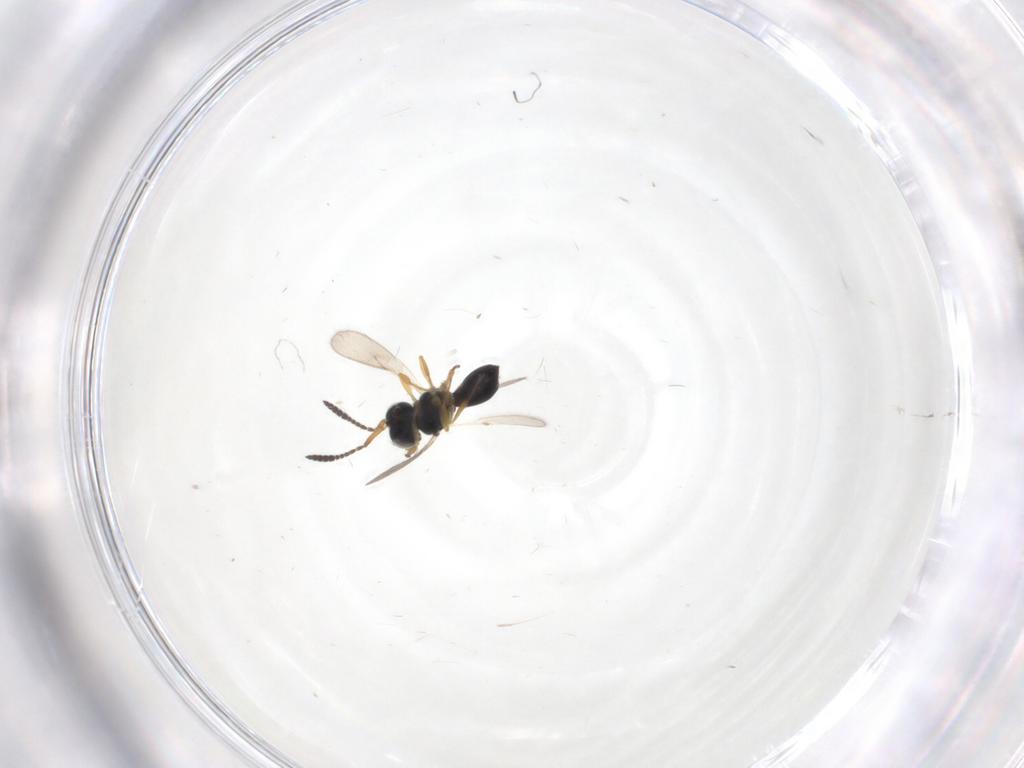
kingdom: Animalia
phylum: Arthropoda
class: Insecta
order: Hymenoptera
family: Scelionidae
